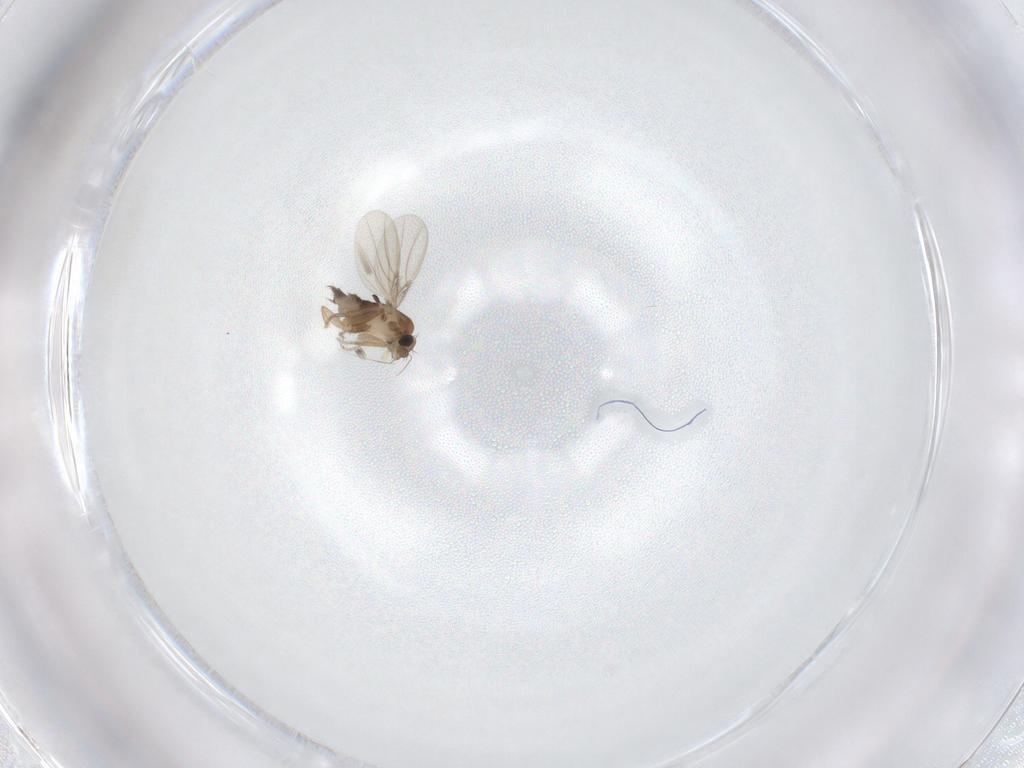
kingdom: Animalia
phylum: Arthropoda
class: Insecta
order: Diptera
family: Phoridae
